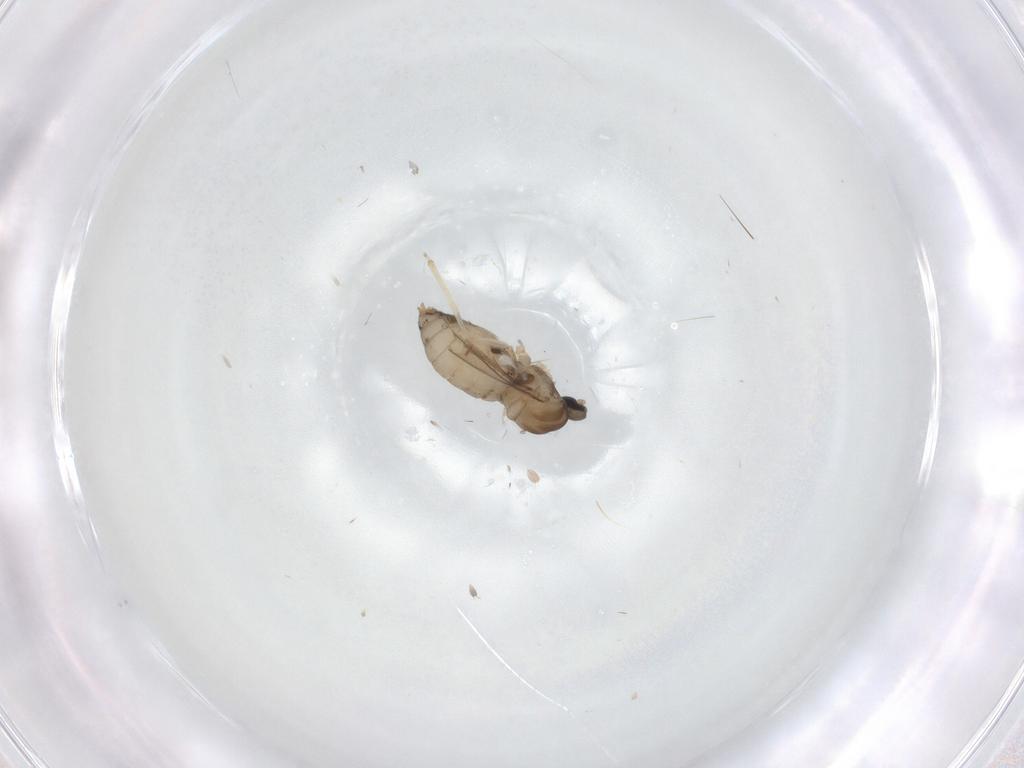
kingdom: Animalia
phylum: Arthropoda
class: Insecta
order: Diptera
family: Cecidomyiidae
